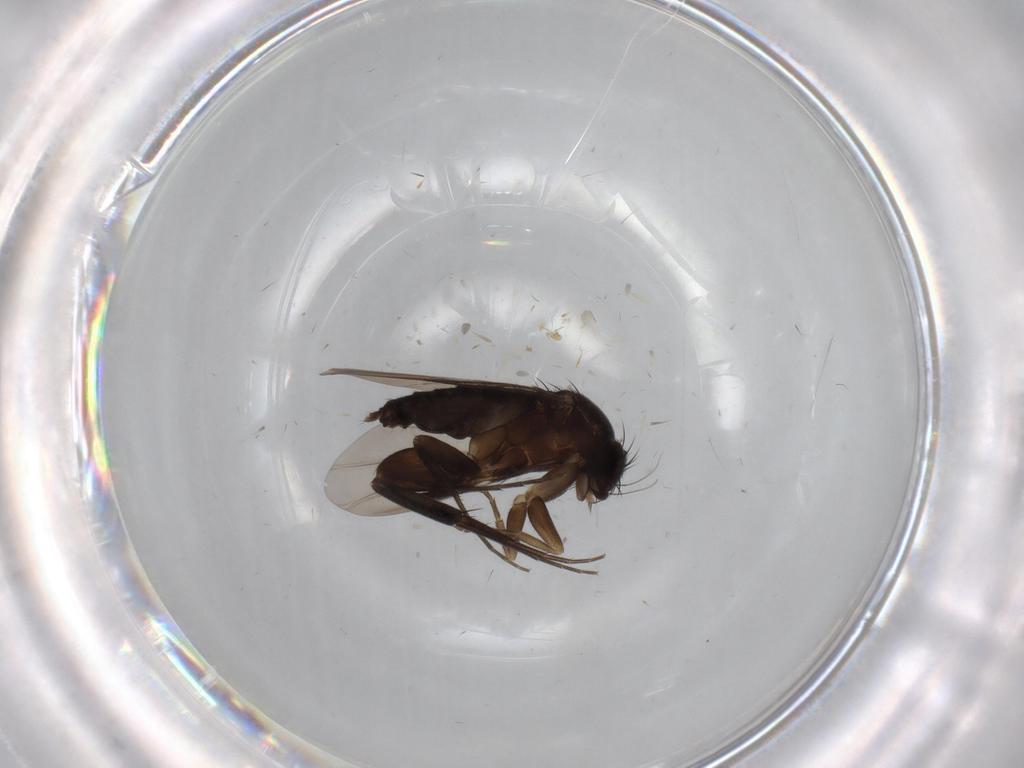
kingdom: Animalia
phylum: Arthropoda
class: Insecta
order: Diptera
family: Phoridae
